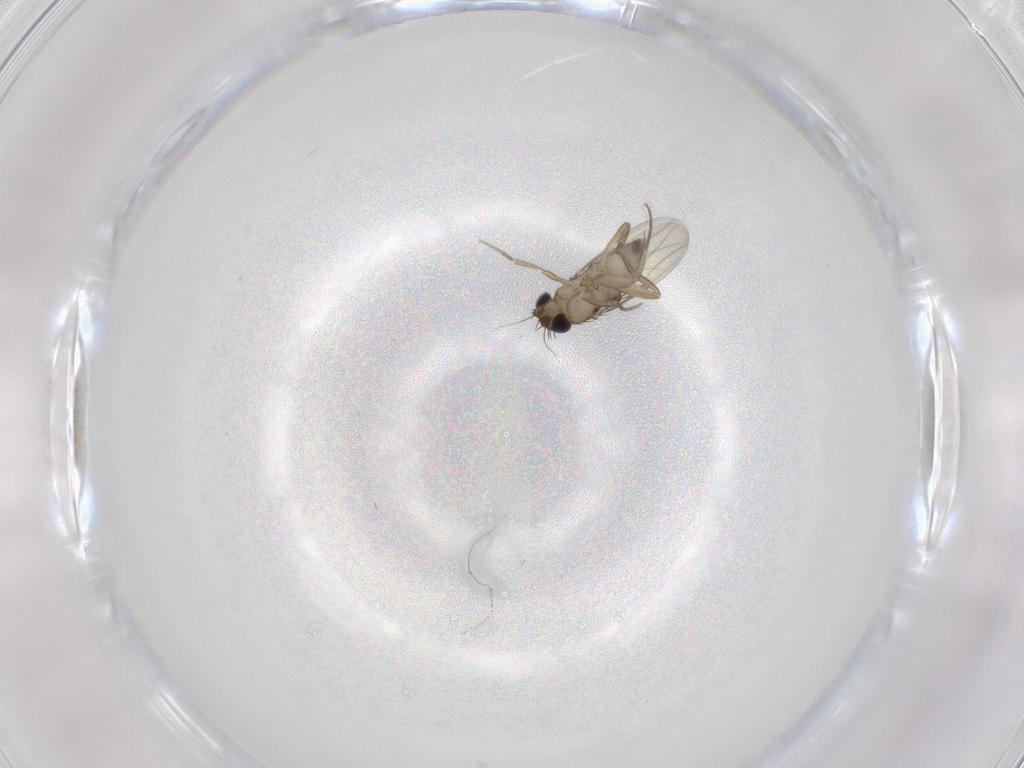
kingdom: Animalia
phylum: Arthropoda
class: Insecta
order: Diptera
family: Phoridae
